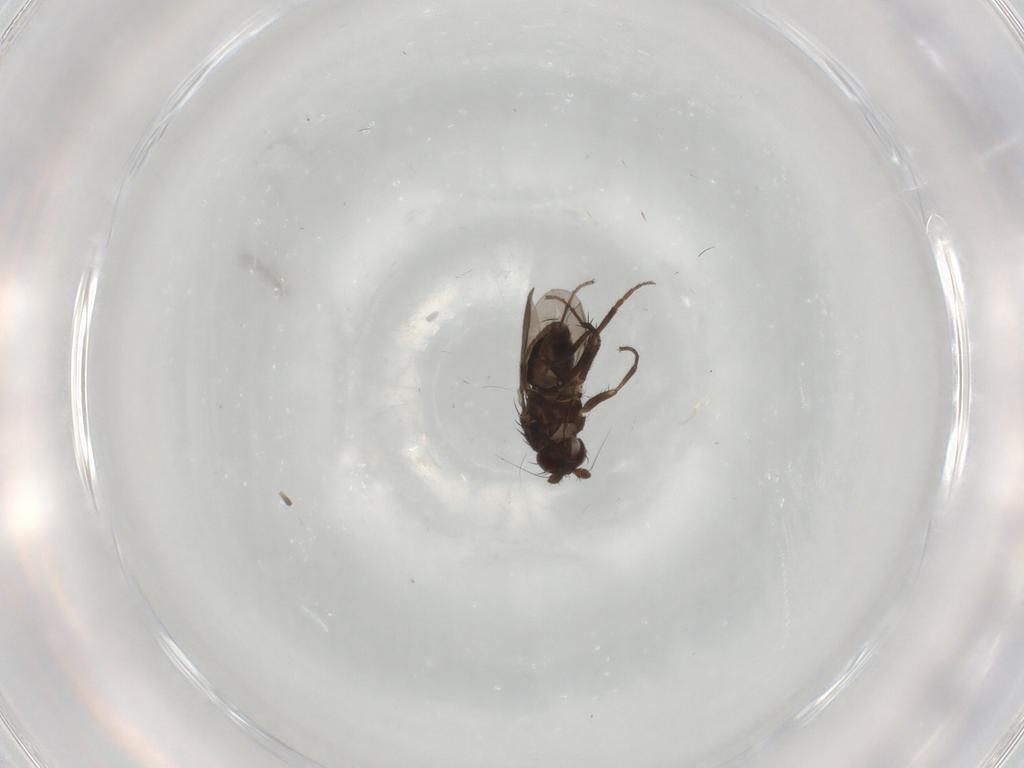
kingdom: Animalia
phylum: Arthropoda
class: Insecta
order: Diptera
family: Sphaeroceridae
